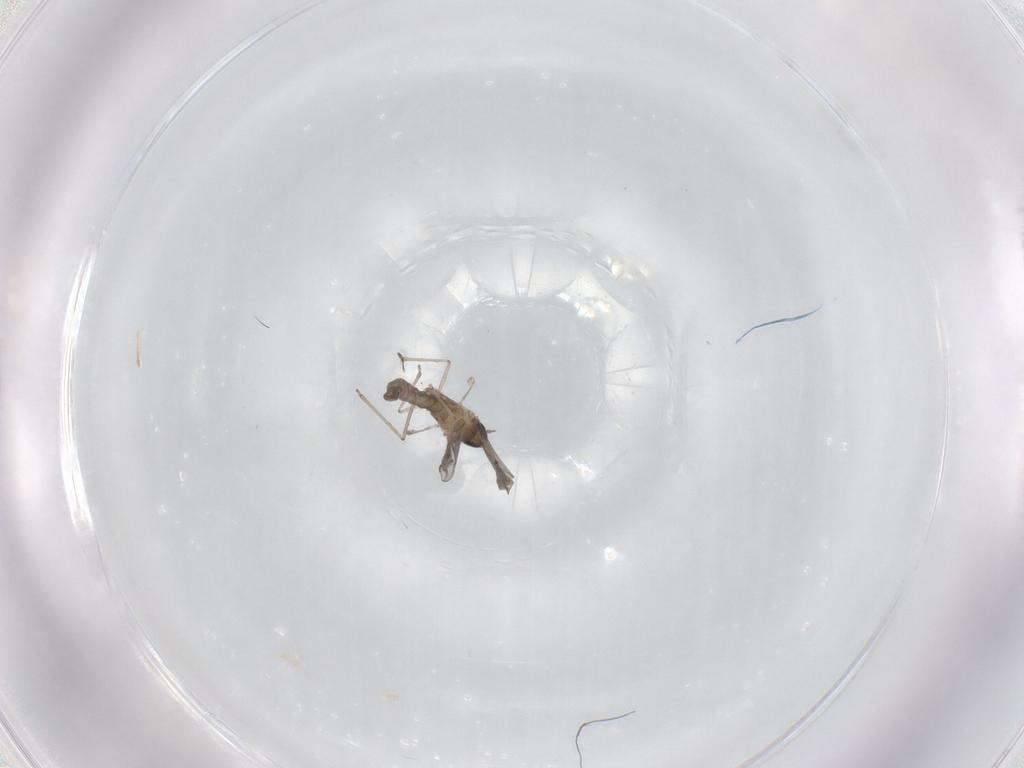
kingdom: Animalia
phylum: Arthropoda
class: Insecta
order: Diptera
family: Cecidomyiidae
